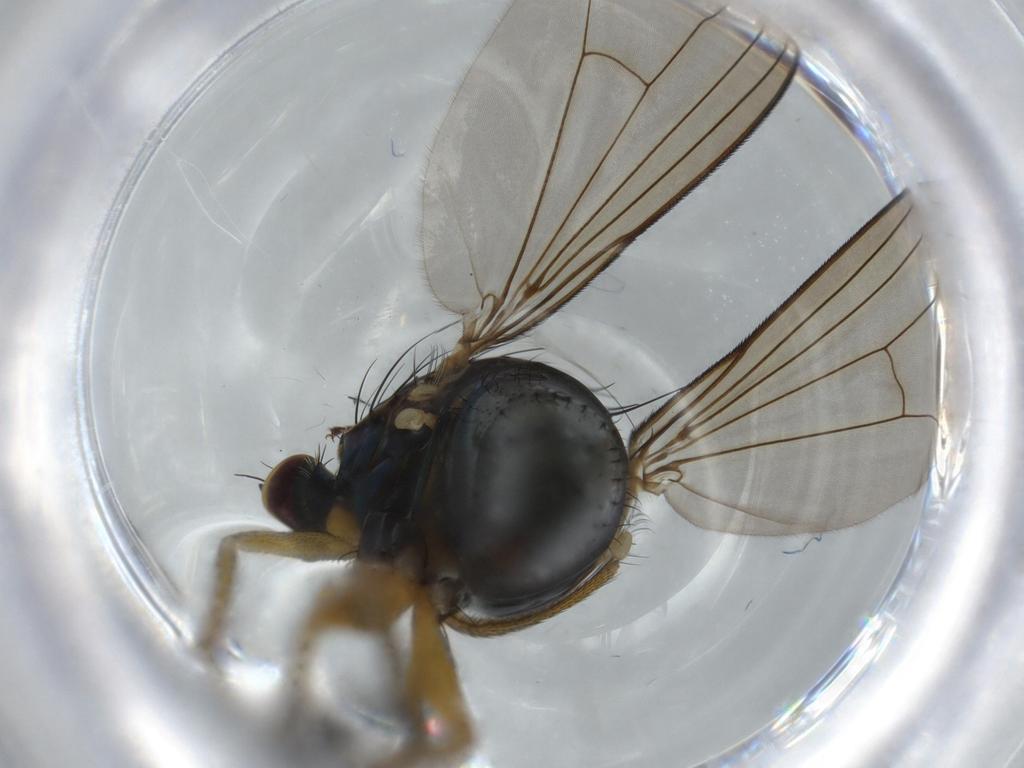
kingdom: Animalia
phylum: Arthropoda
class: Insecta
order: Diptera
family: Dolichopodidae
